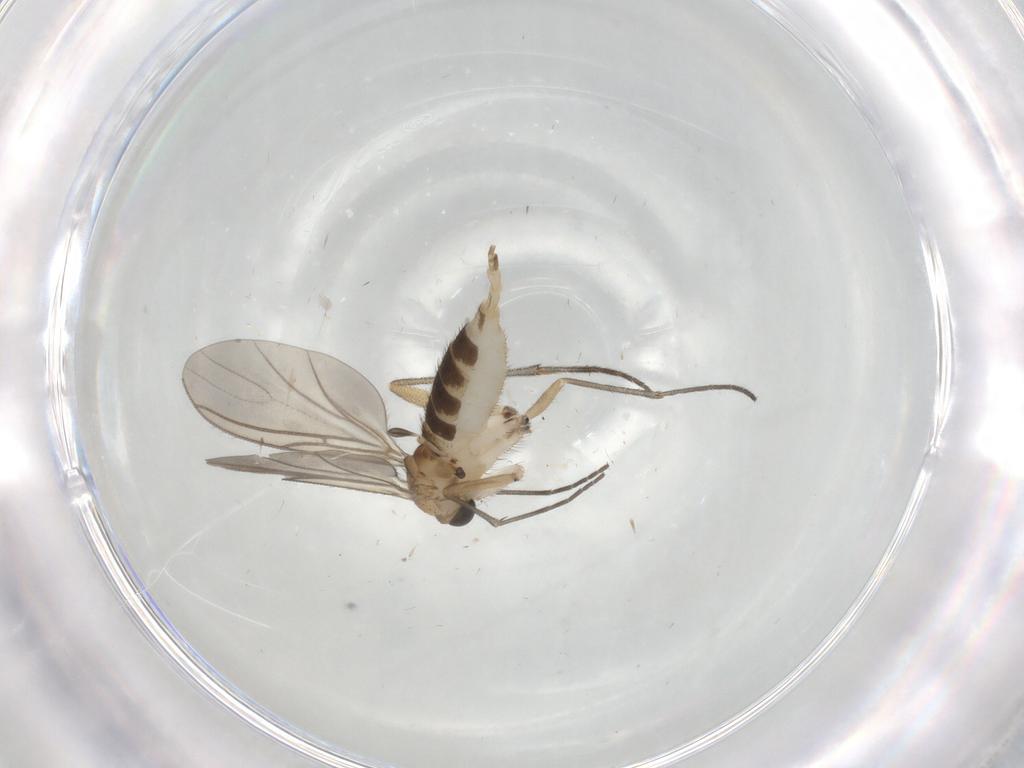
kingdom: Animalia
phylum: Arthropoda
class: Insecta
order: Diptera
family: Sciaridae
